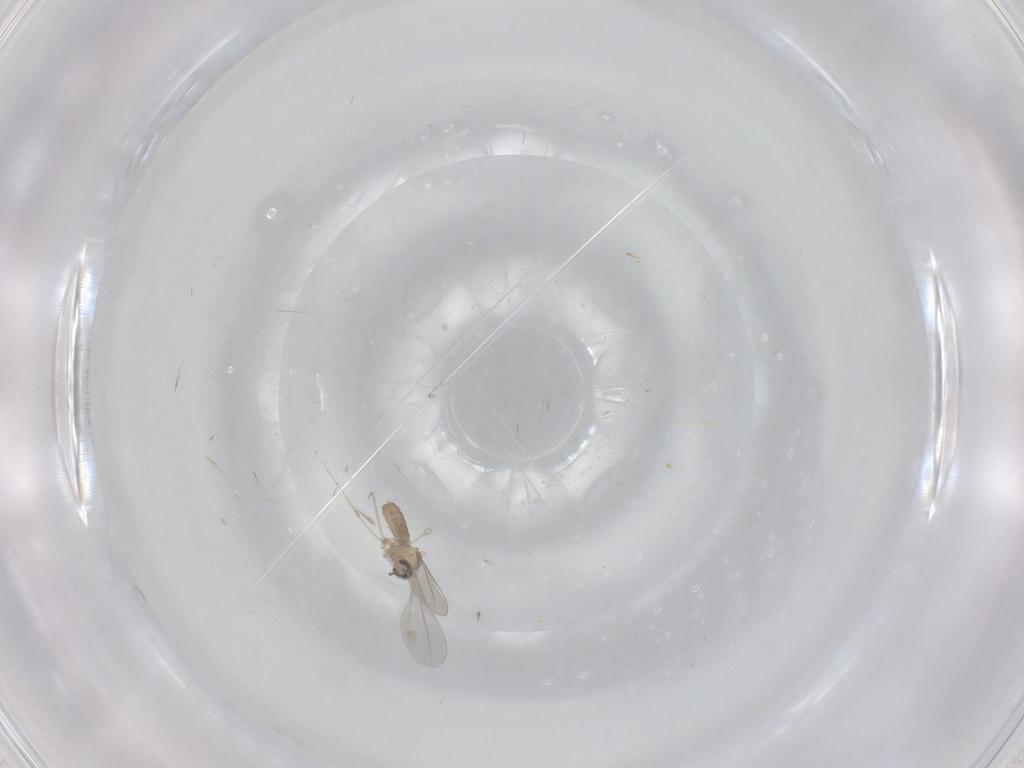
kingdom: Animalia
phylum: Arthropoda
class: Insecta
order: Diptera
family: Cecidomyiidae
